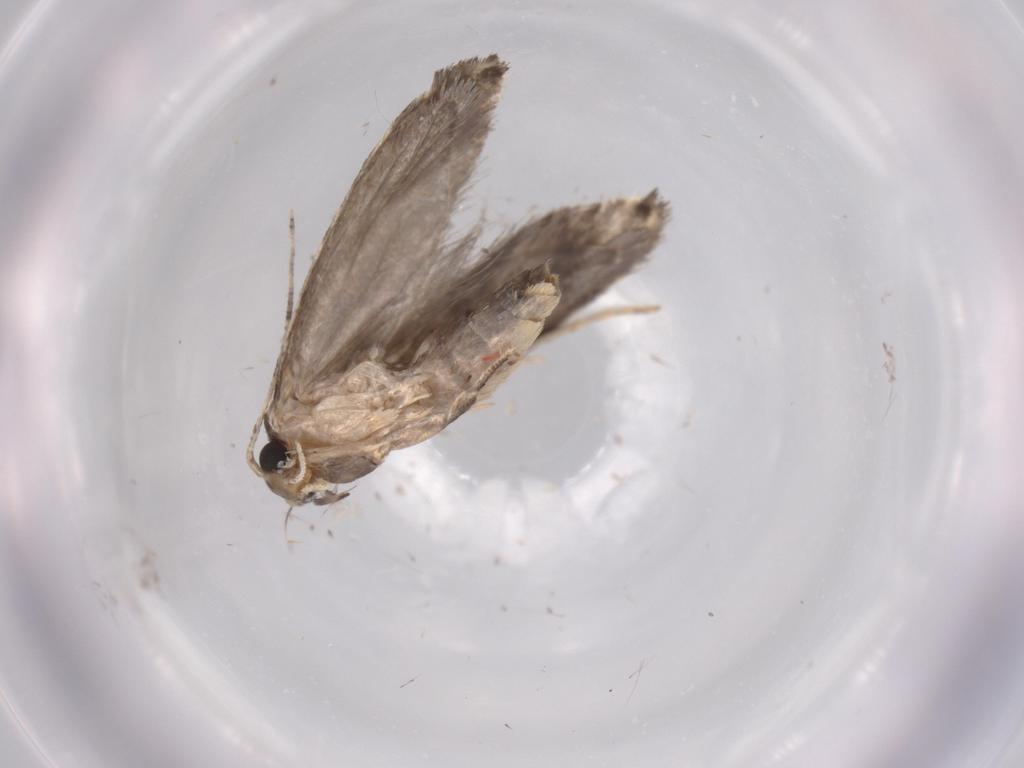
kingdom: Animalia
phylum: Arthropoda
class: Insecta
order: Lepidoptera
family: Tineidae
